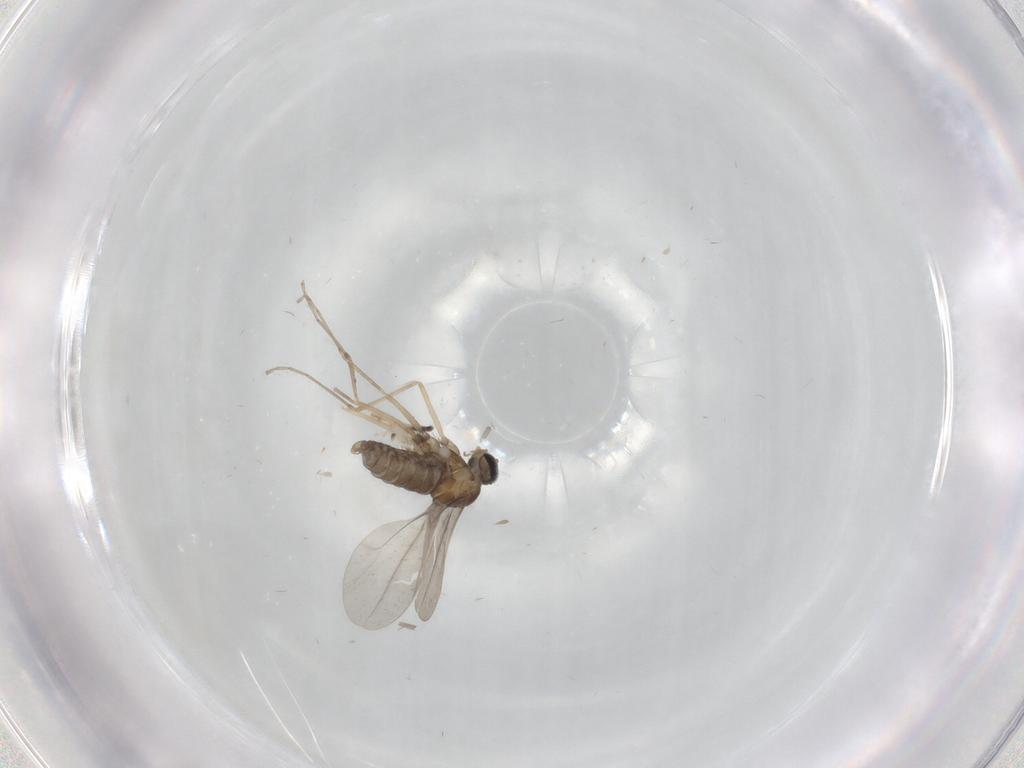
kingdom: Animalia
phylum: Arthropoda
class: Insecta
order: Diptera
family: Cecidomyiidae
